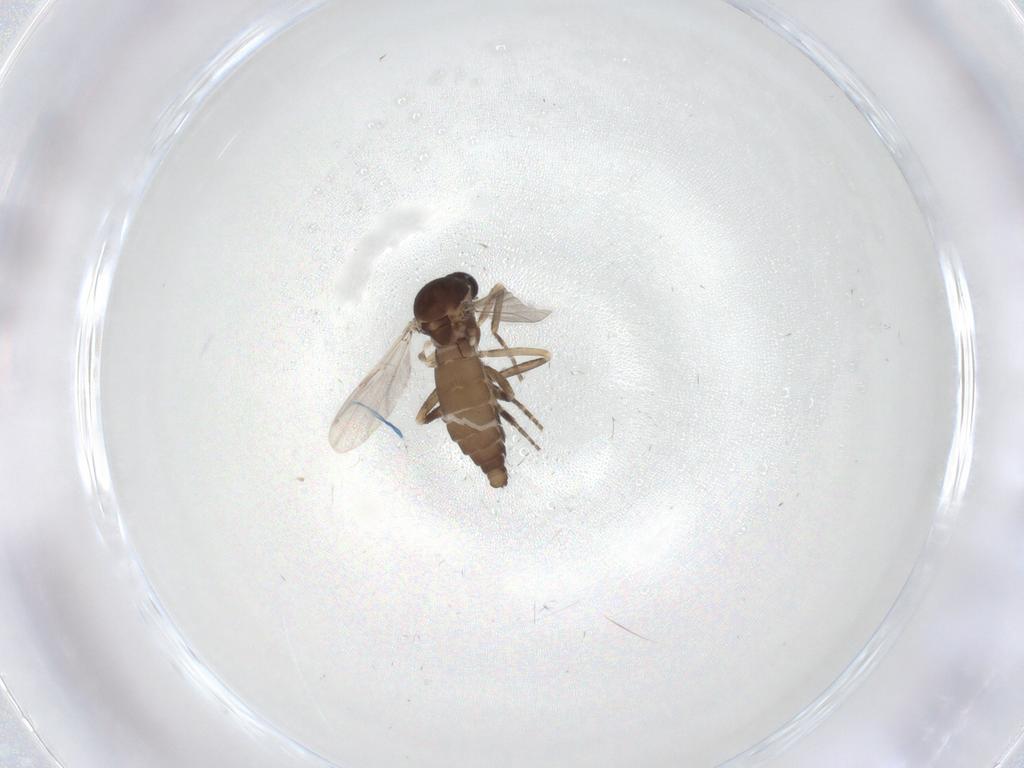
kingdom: Animalia
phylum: Arthropoda
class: Insecta
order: Diptera
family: Ceratopogonidae
